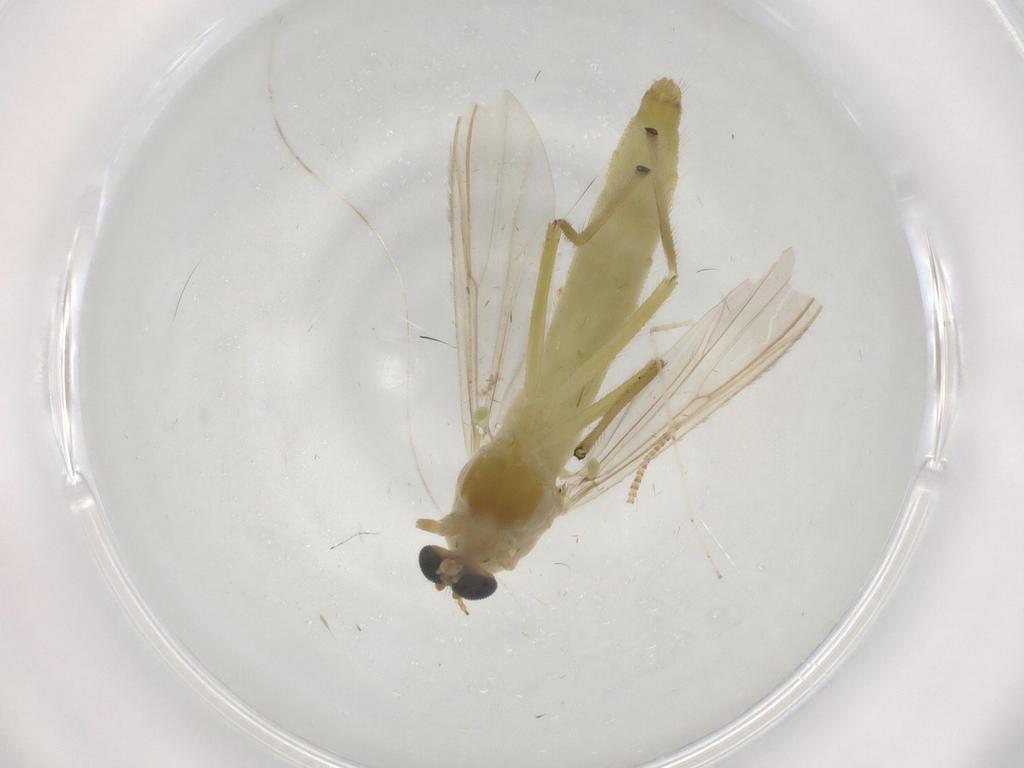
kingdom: Animalia
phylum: Arthropoda
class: Insecta
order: Diptera
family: Chironomidae
